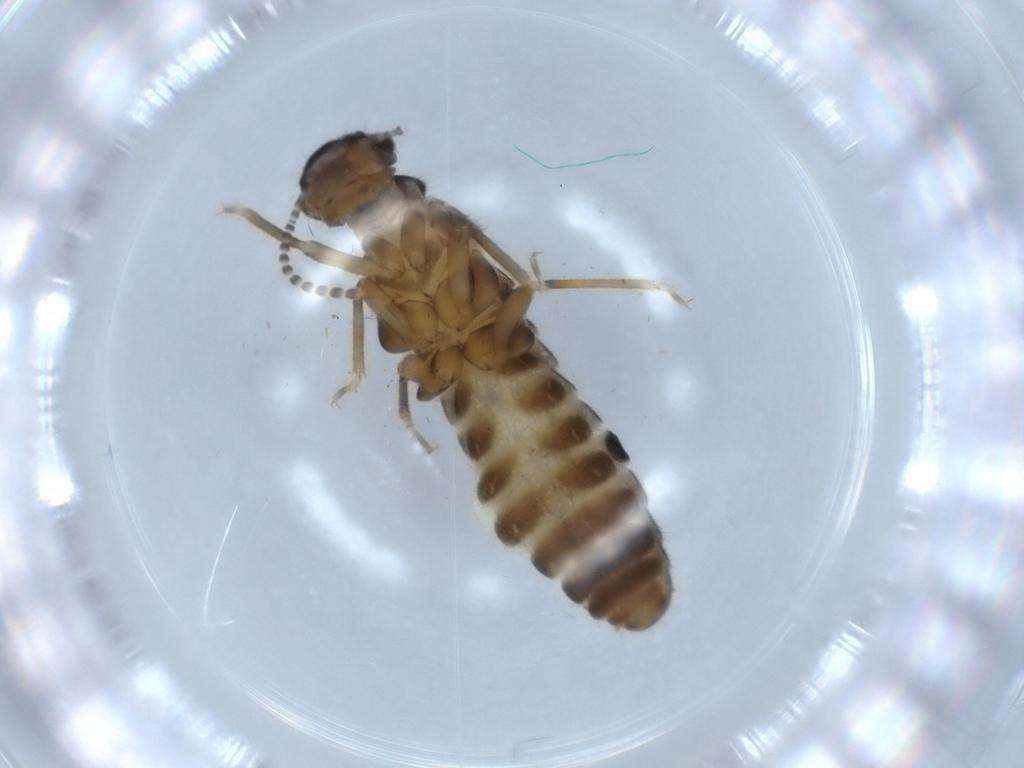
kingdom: Animalia
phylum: Arthropoda
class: Insecta
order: Blattodea
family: Termitidae
